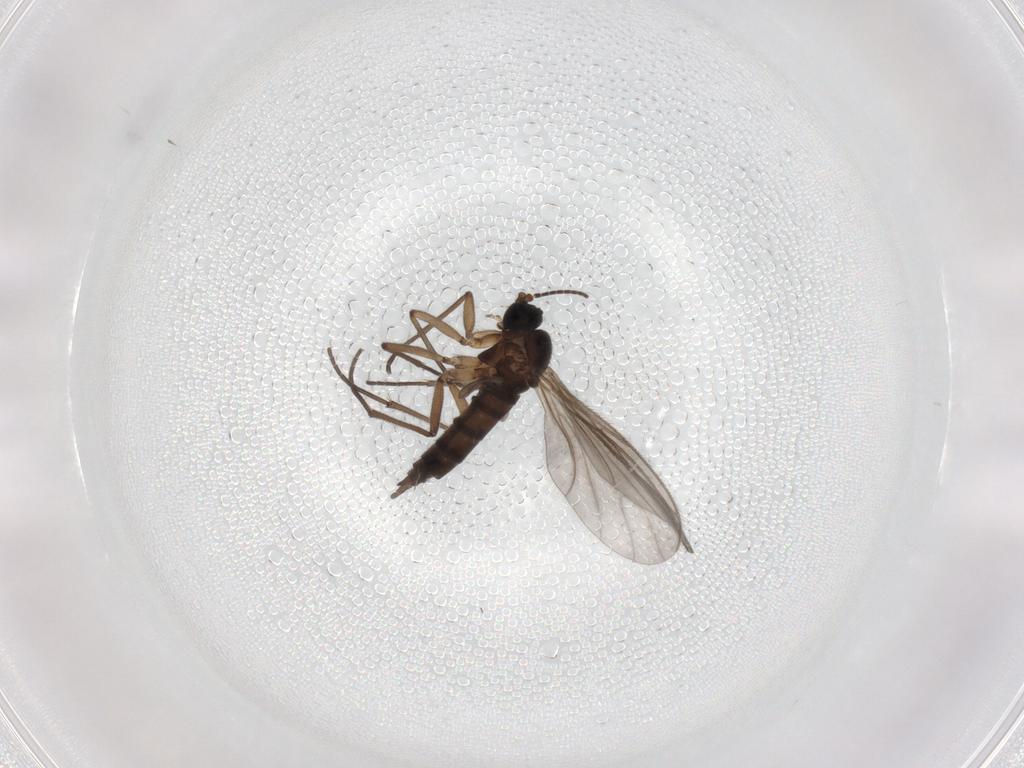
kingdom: Animalia
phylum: Arthropoda
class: Insecta
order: Diptera
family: Sciaridae
